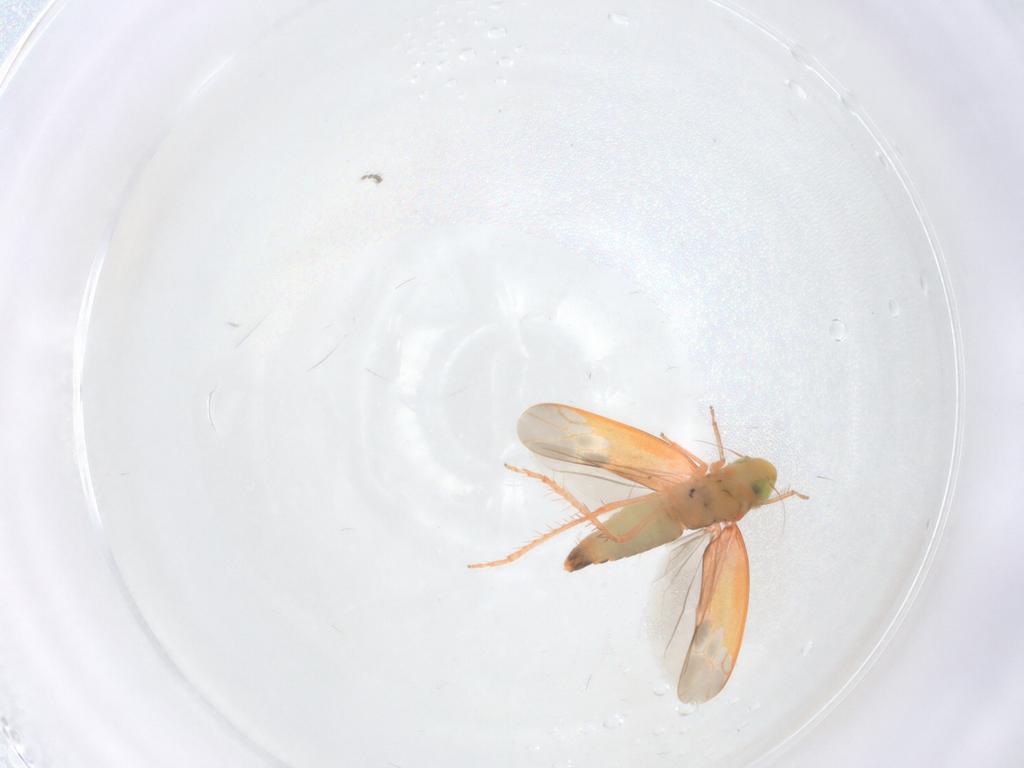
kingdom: Animalia
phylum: Arthropoda
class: Insecta
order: Hemiptera
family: Cicadellidae
